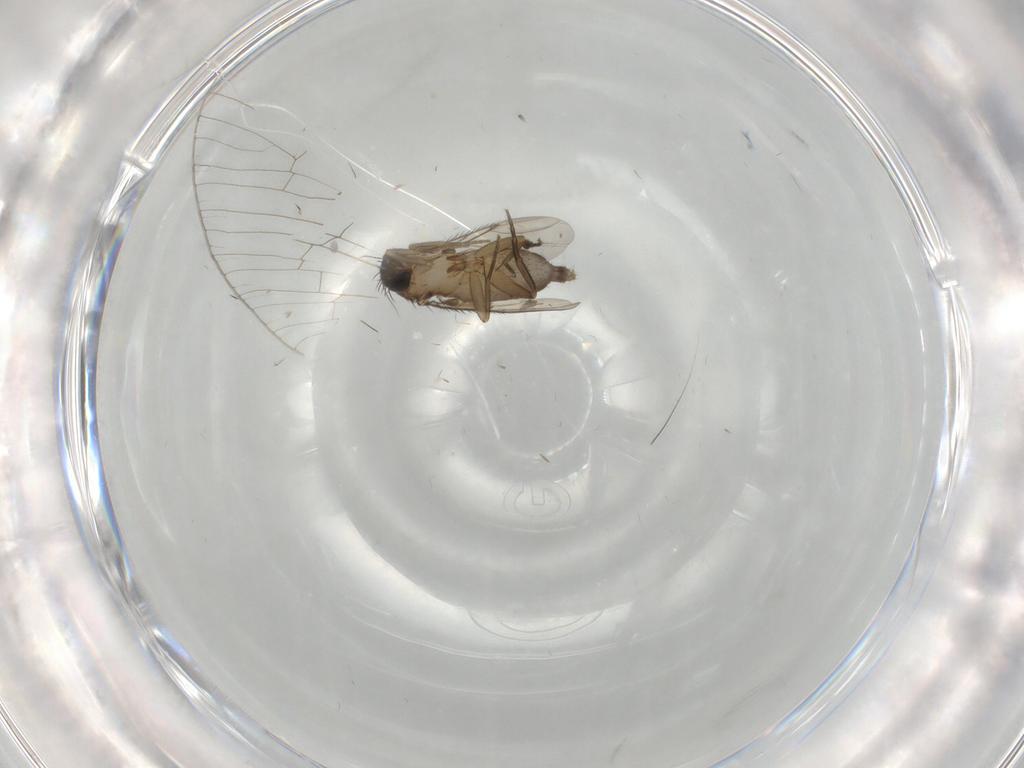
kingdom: Animalia
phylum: Arthropoda
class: Insecta
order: Diptera
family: Phoridae
